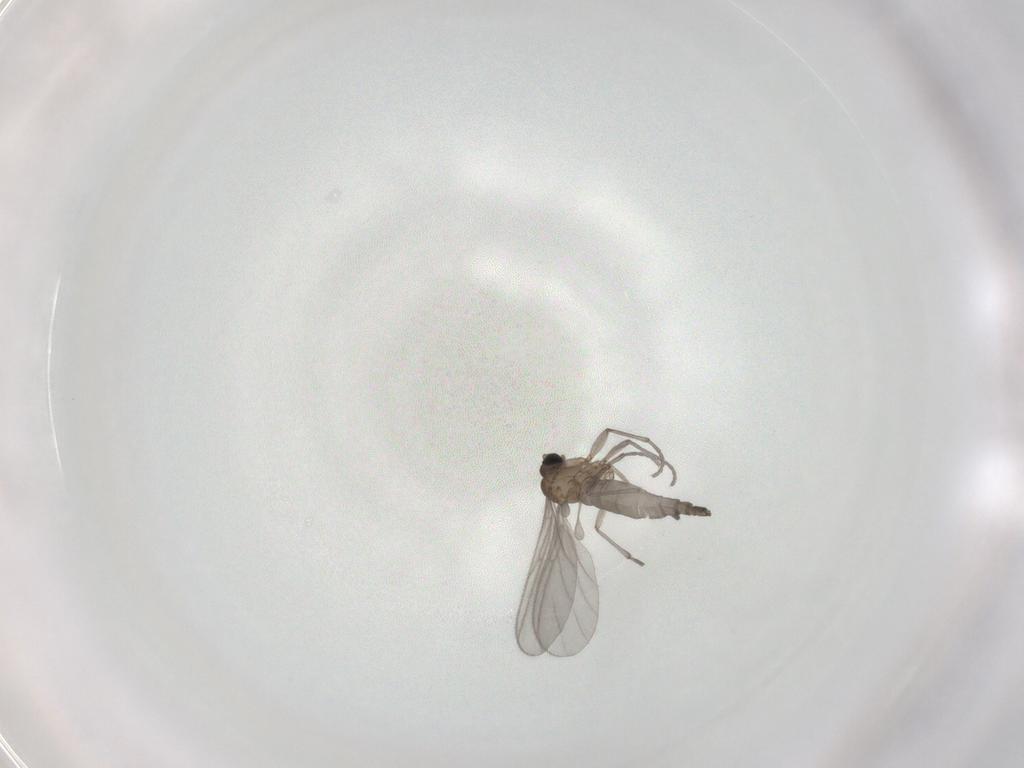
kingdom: Animalia
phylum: Arthropoda
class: Insecta
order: Diptera
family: Sciaridae
